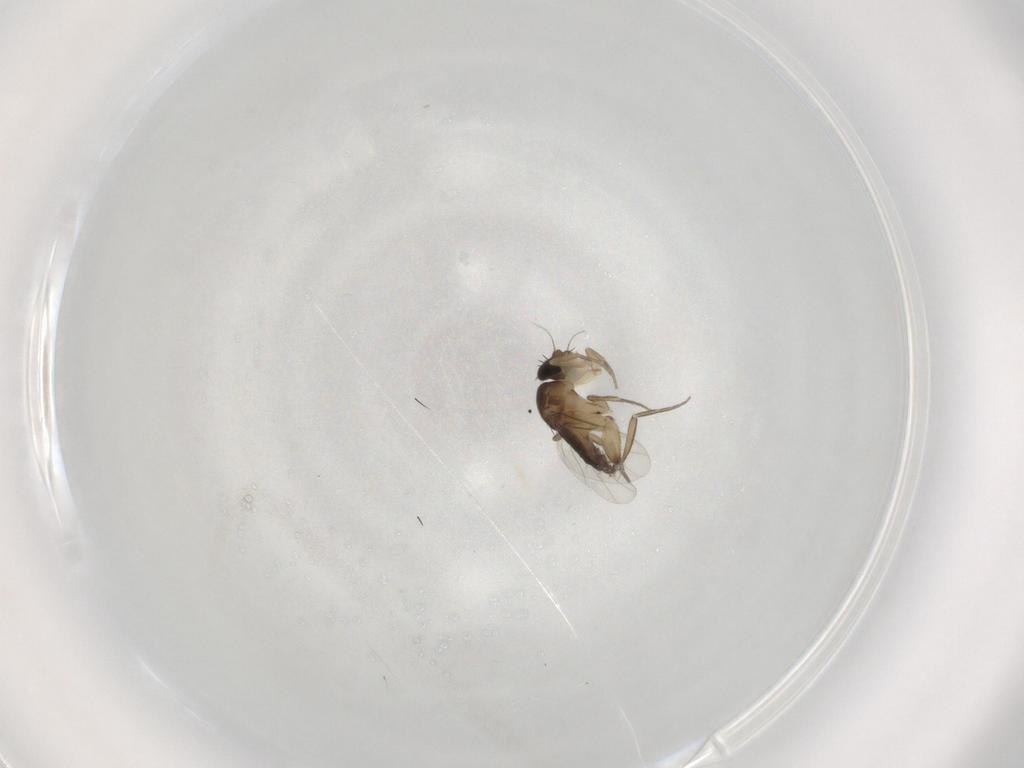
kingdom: Animalia
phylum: Arthropoda
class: Insecta
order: Diptera
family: Phoridae
